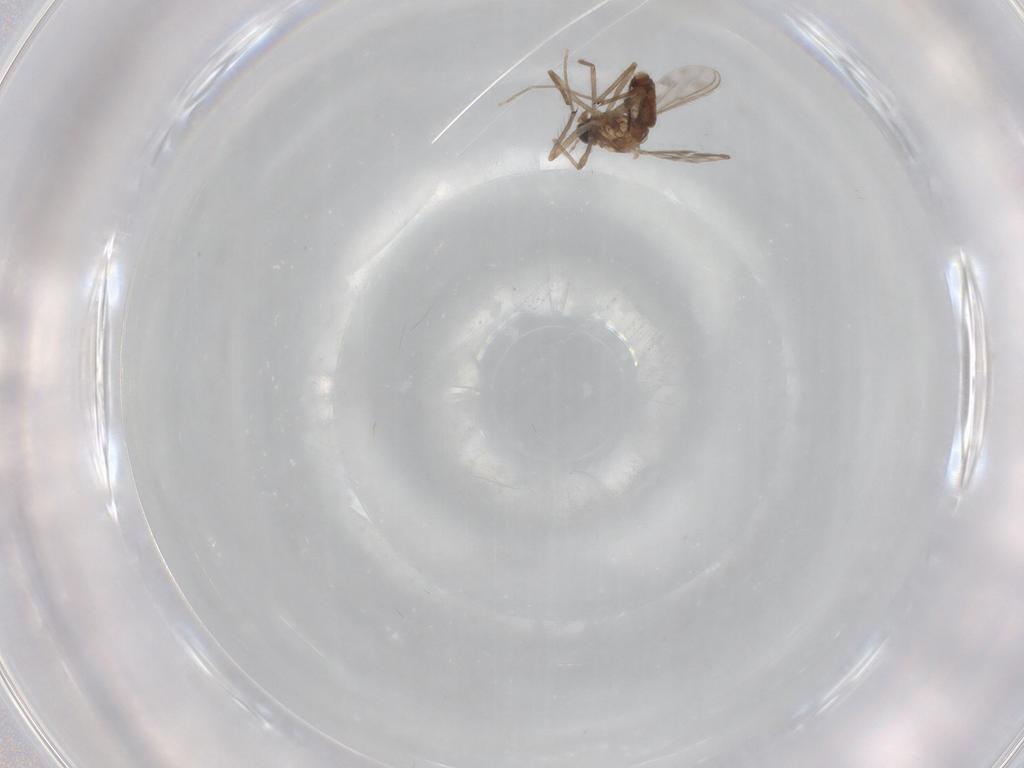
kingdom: Animalia
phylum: Arthropoda
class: Insecta
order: Diptera
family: Chironomidae
